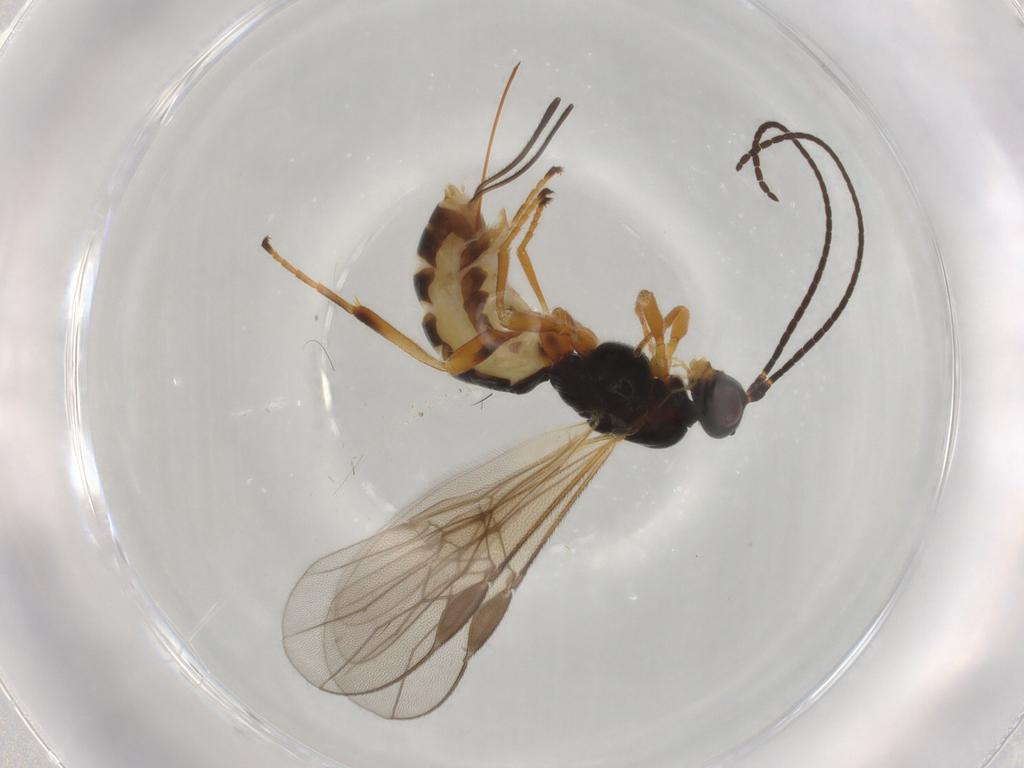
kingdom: Animalia
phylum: Arthropoda
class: Insecta
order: Hymenoptera
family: Braconidae
